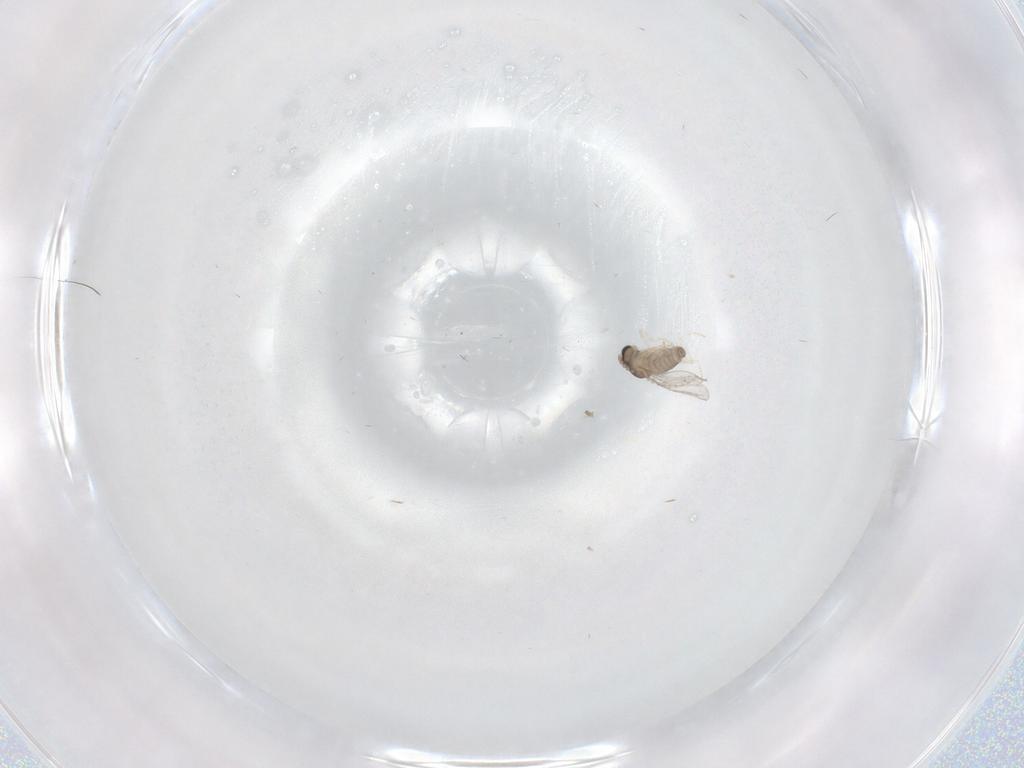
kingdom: Animalia
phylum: Arthropoda
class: Insecta
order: Diptera
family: Chironomidae
